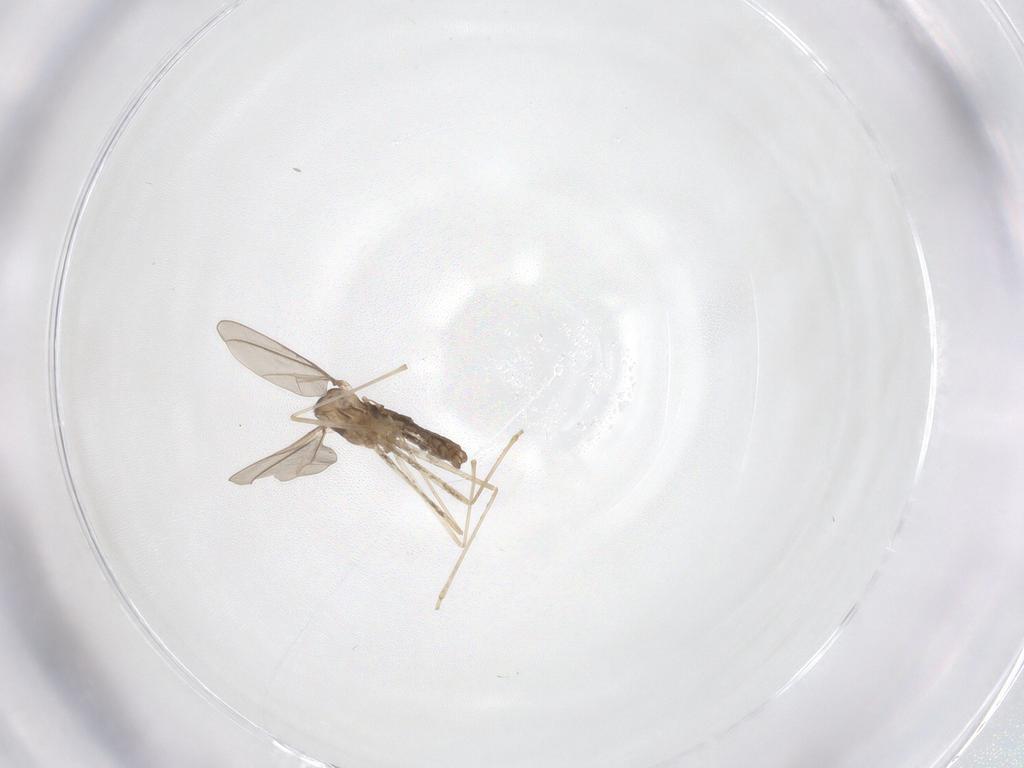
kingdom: Animalia
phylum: Arthropoda
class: Insecta
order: Diptera
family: Cecidomyiidae
